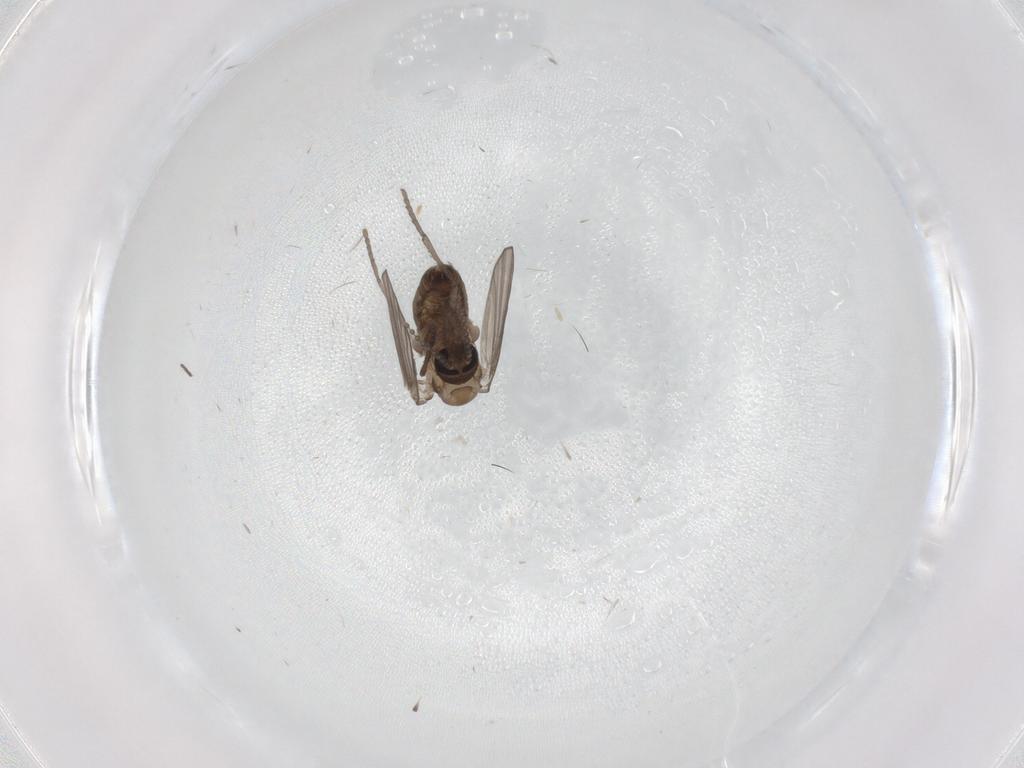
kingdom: Animalia
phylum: Arthropoda
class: Insecta
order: Diptera
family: Psychodidae
